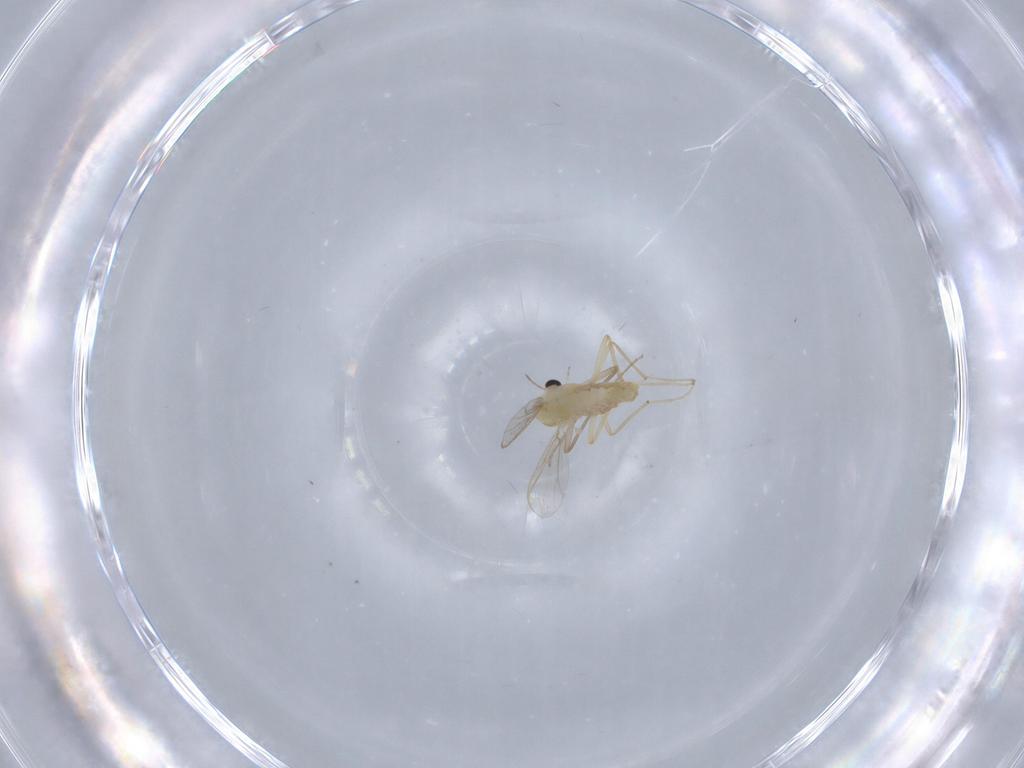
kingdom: Animalia
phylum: Arthropoda
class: Insecta
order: Diptera
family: Chironomidae
